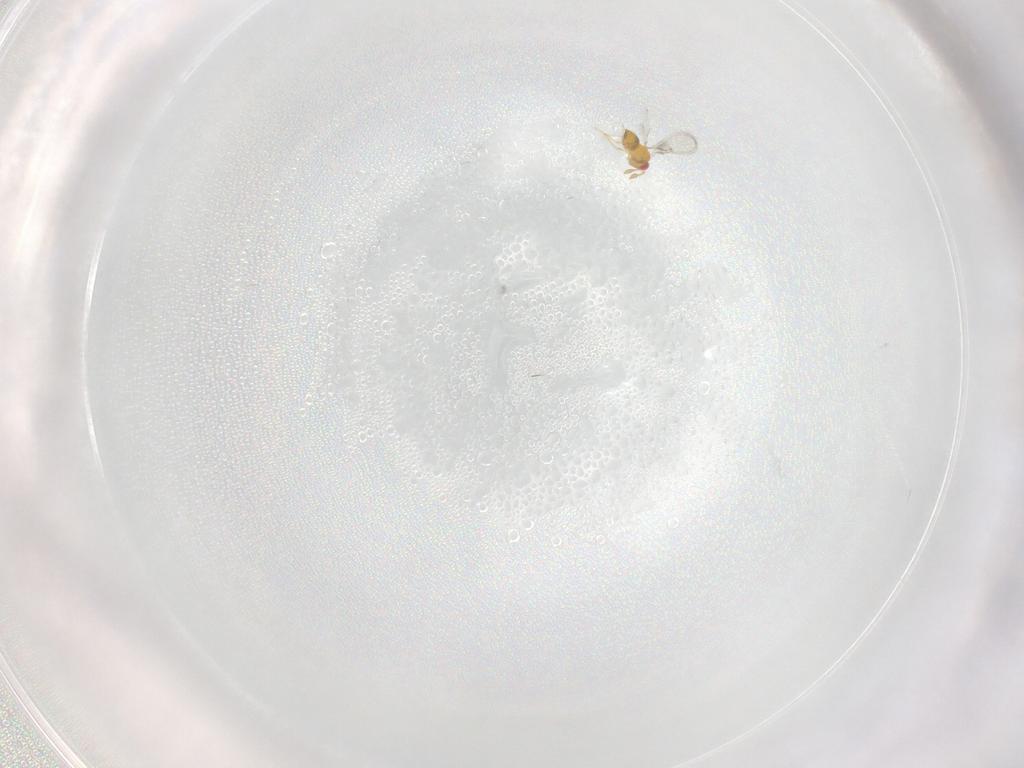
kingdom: Animalia
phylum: Arthropoda
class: Insecta
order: Hymenoptera
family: Trichogrammatidae
